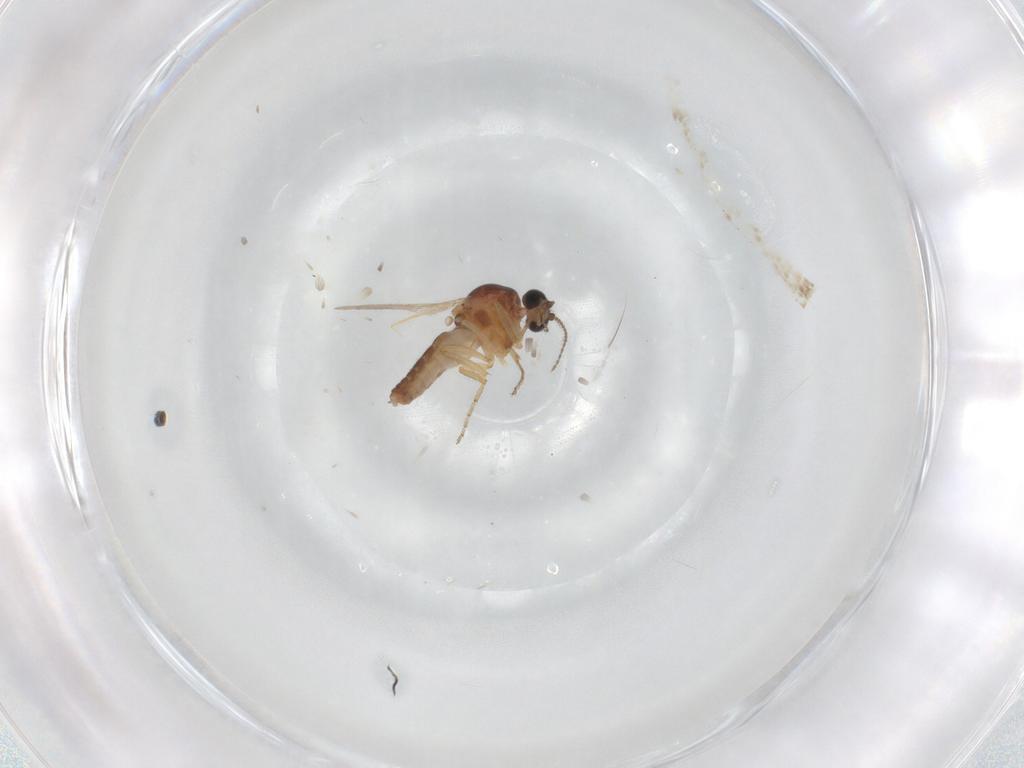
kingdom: Animalia
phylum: Arthropoda
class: Insecta
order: Diptera
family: Ceratopogonidae
